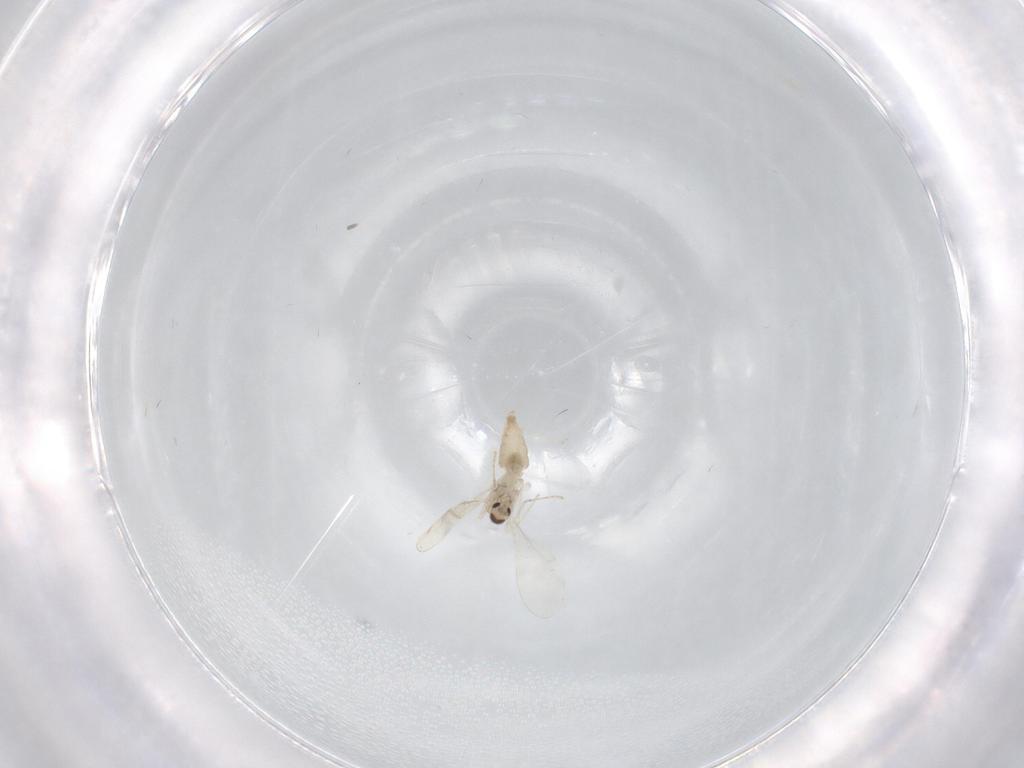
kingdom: Animalia
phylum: Arthropoda
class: Insecta
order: Diptera
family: Cecidomyiidae
